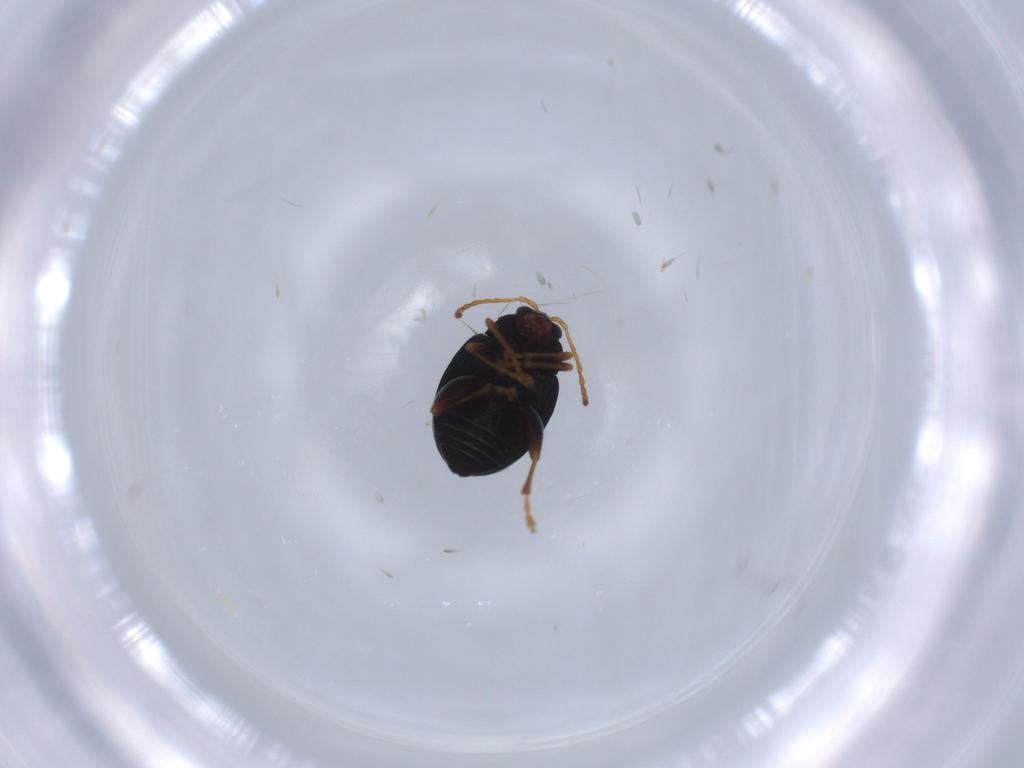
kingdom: Animalia
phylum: Arthropoda
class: Insecta
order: Coleoptera
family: Chrysomelidae
